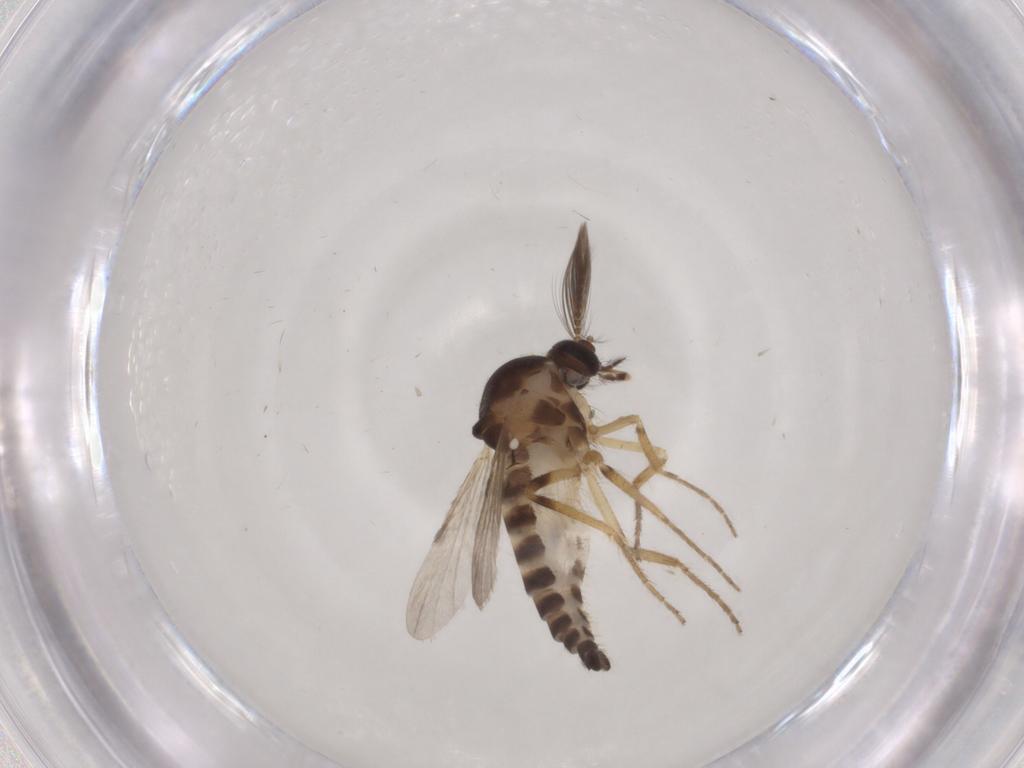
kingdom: Animalia
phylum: Arthropoda
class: Insecta
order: Diptera
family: Ceratopogonidae
